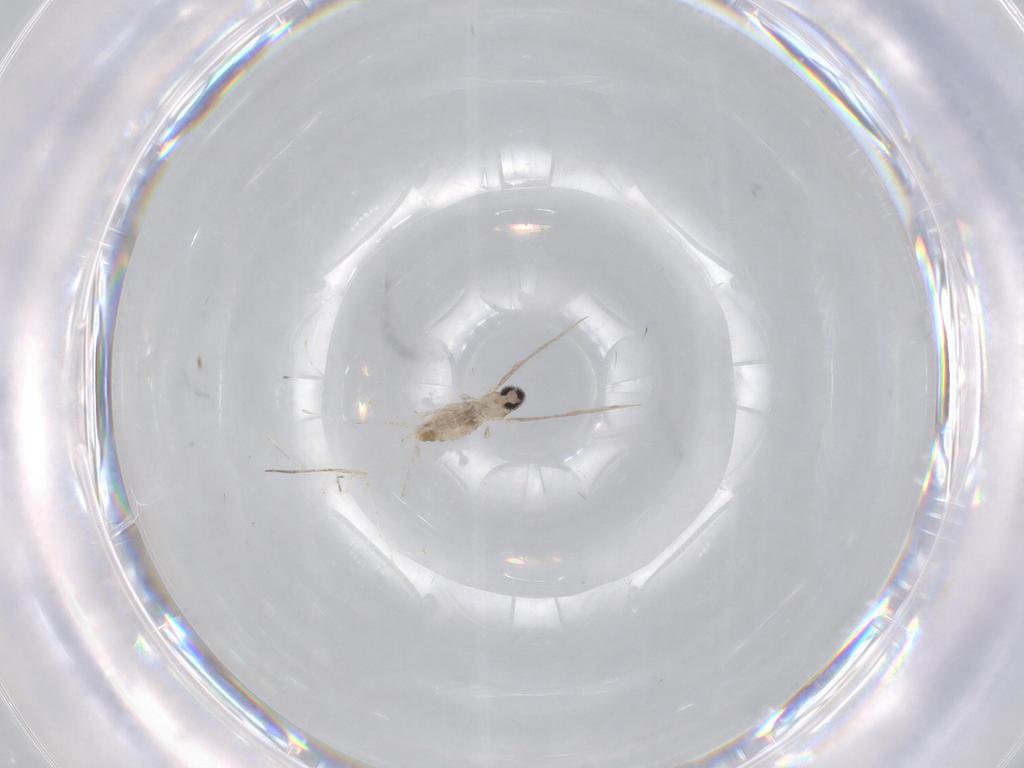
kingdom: Animalia
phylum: Arthropoda
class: Insecta
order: Diptera
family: Cecidomyiidae
